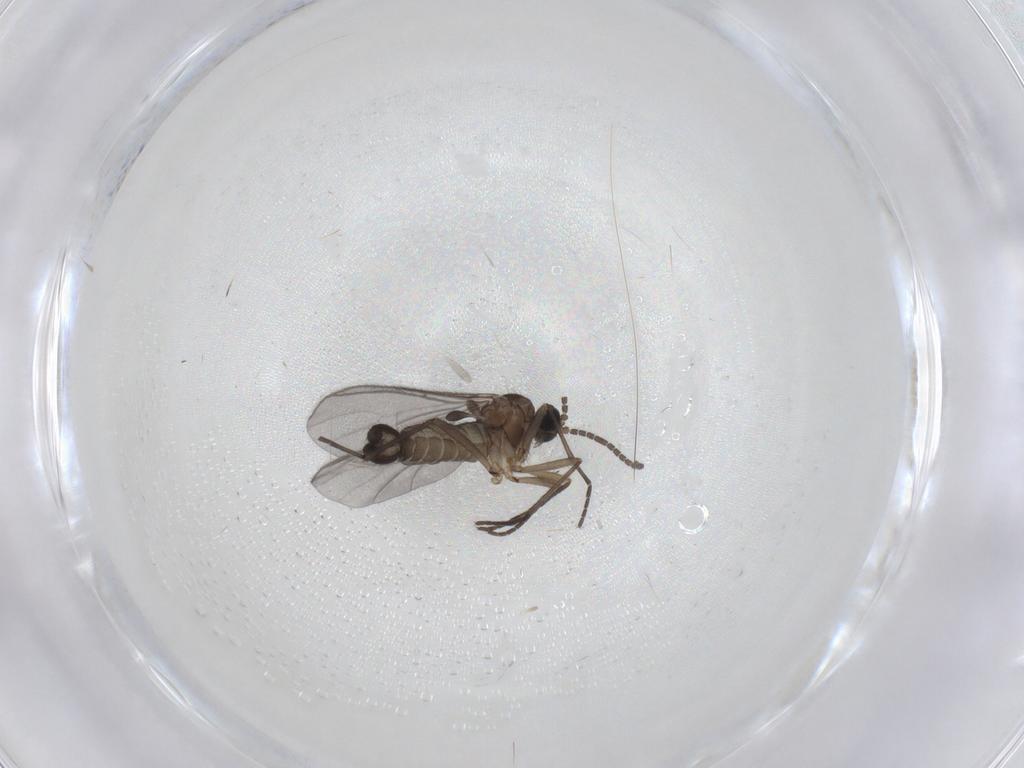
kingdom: Animalia
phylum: Arthropoda
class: Insecta
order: Diptera
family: Sciaridae
